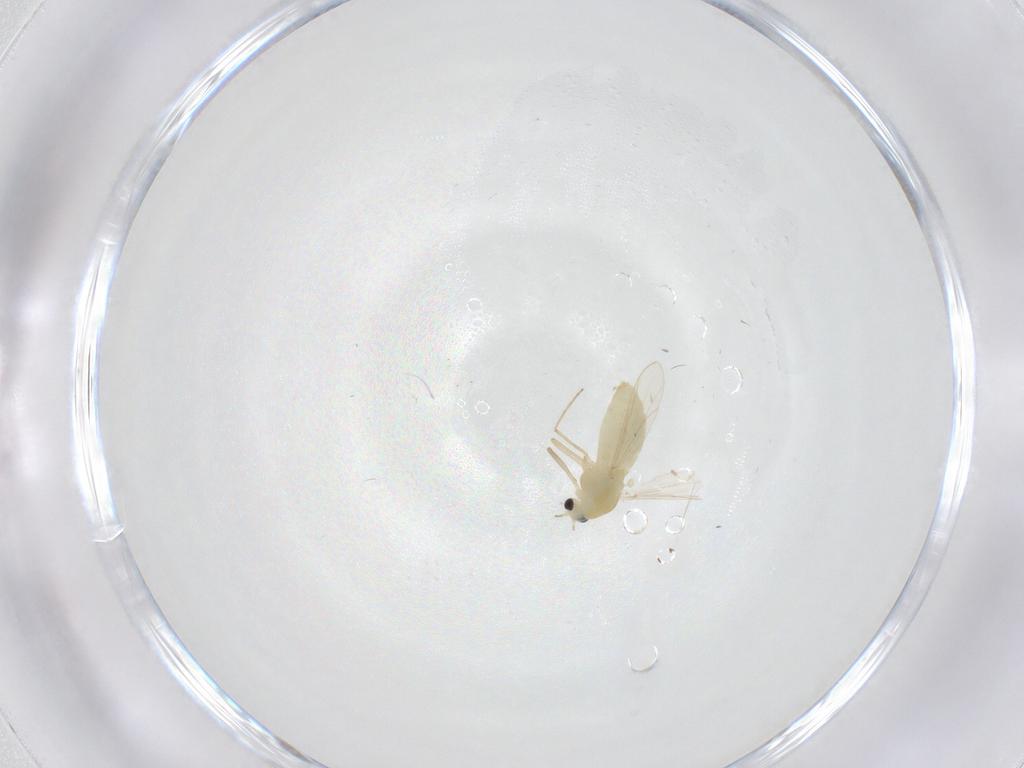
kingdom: Animalia
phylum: Arthropoda
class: Insecta
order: Diptera
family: Chironomidae
